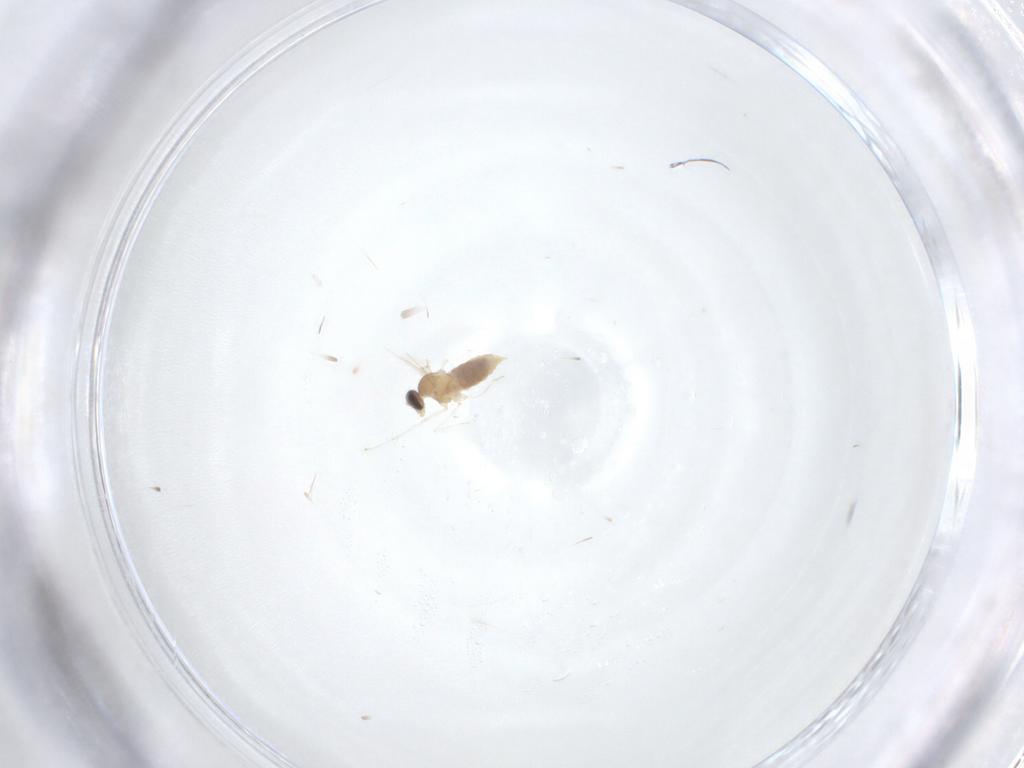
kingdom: Animalia
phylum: Arthropoda
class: Insecta
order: Diptera
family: Cecidomyiidae
